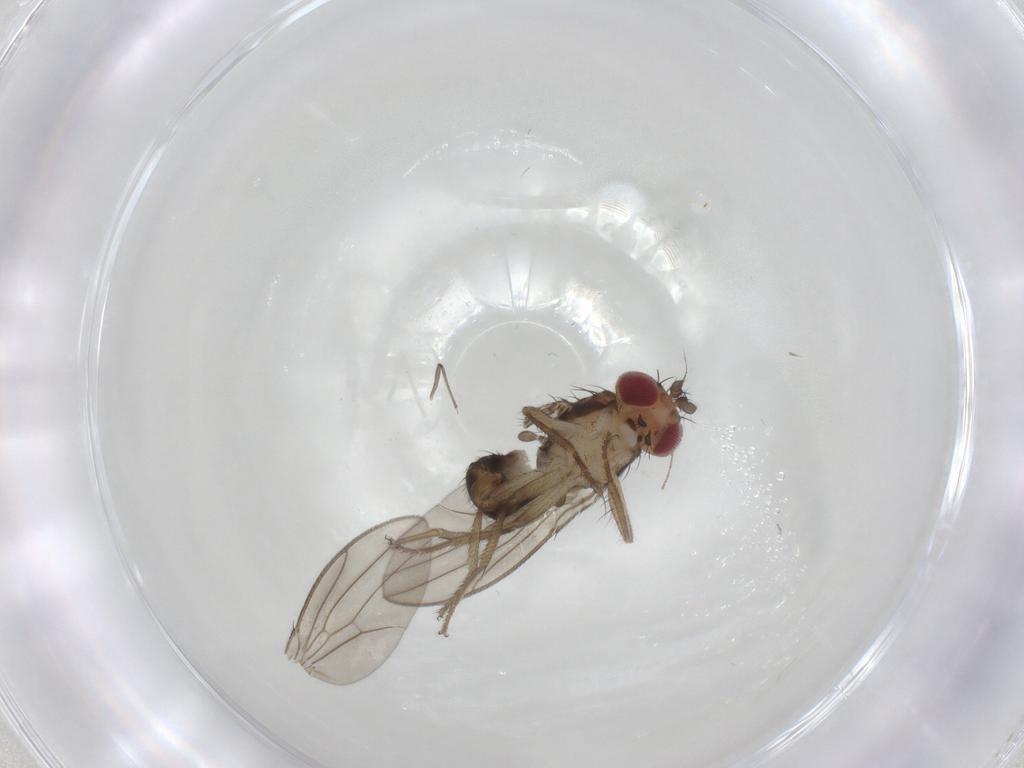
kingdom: Animalia
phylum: Arthropoda
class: Insecta
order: Diptera
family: Drosophilidae
